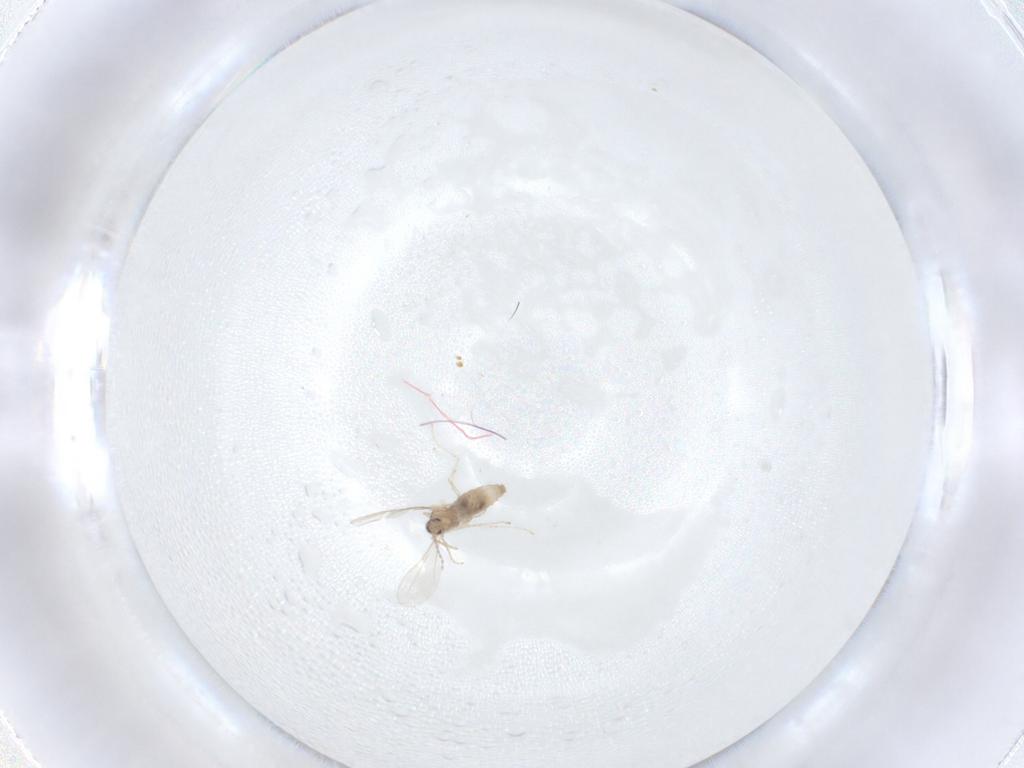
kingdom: Animalia
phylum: Arthropoda
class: Insecta
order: Diptera
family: Cecidomyiidae
